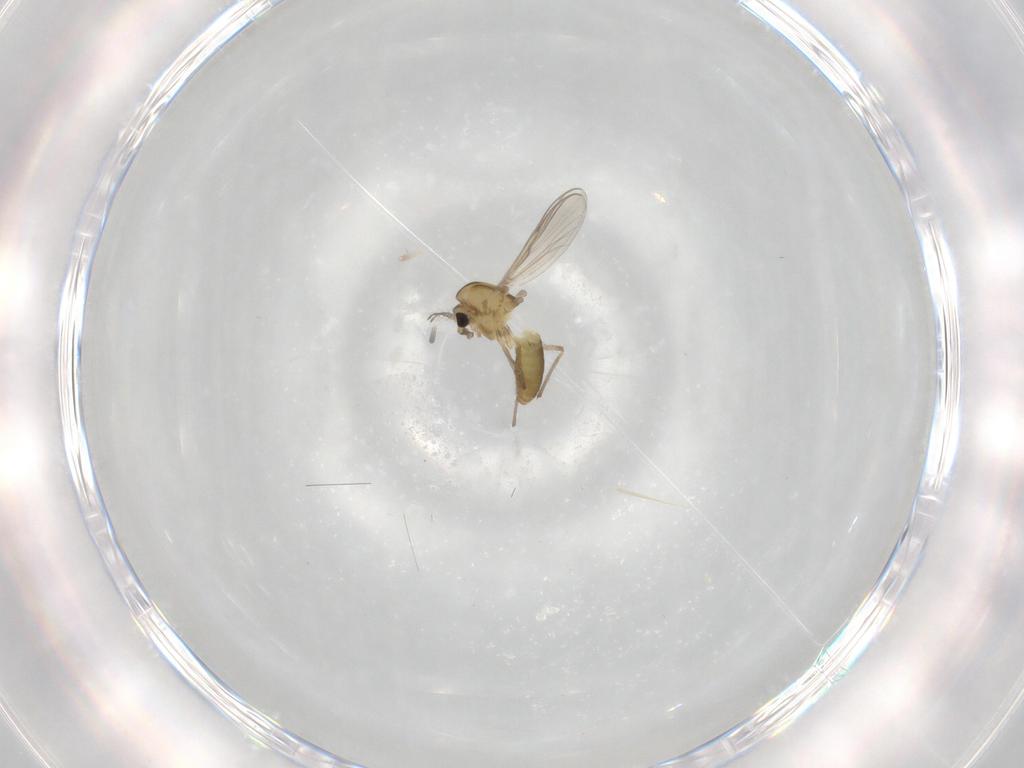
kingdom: Animalia
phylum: Arthropoda
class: Insecta
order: Diptera
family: Chironomidae
